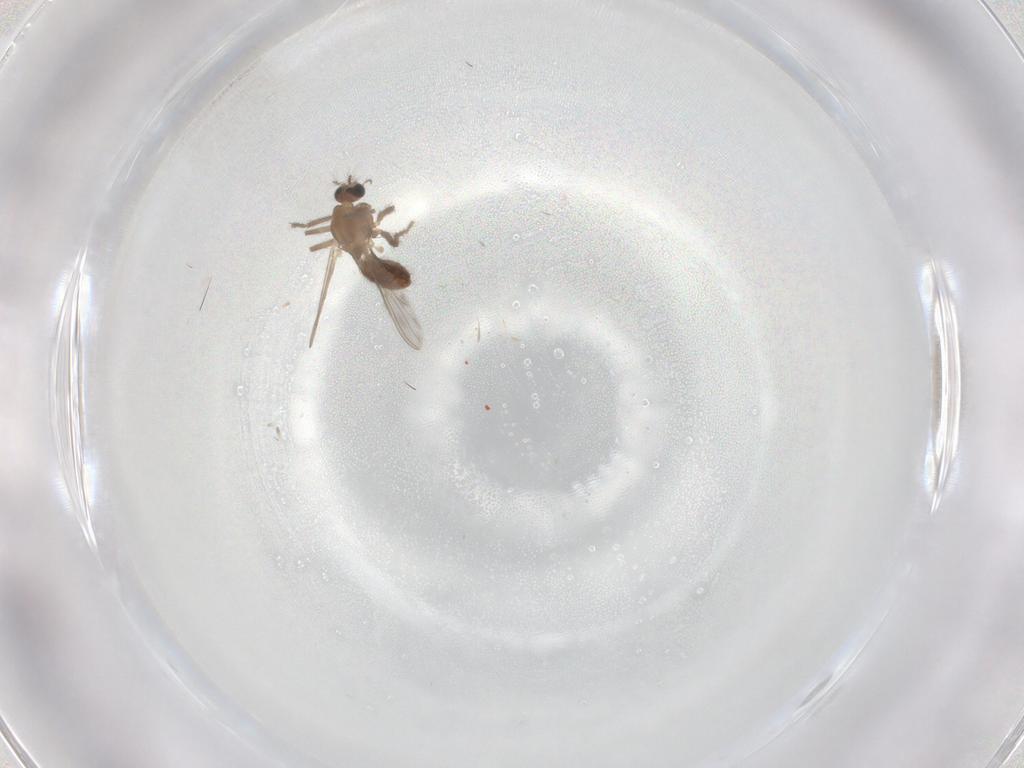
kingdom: Animalia
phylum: Arthropoda
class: Insecta
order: Diptera
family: Chironomidae
